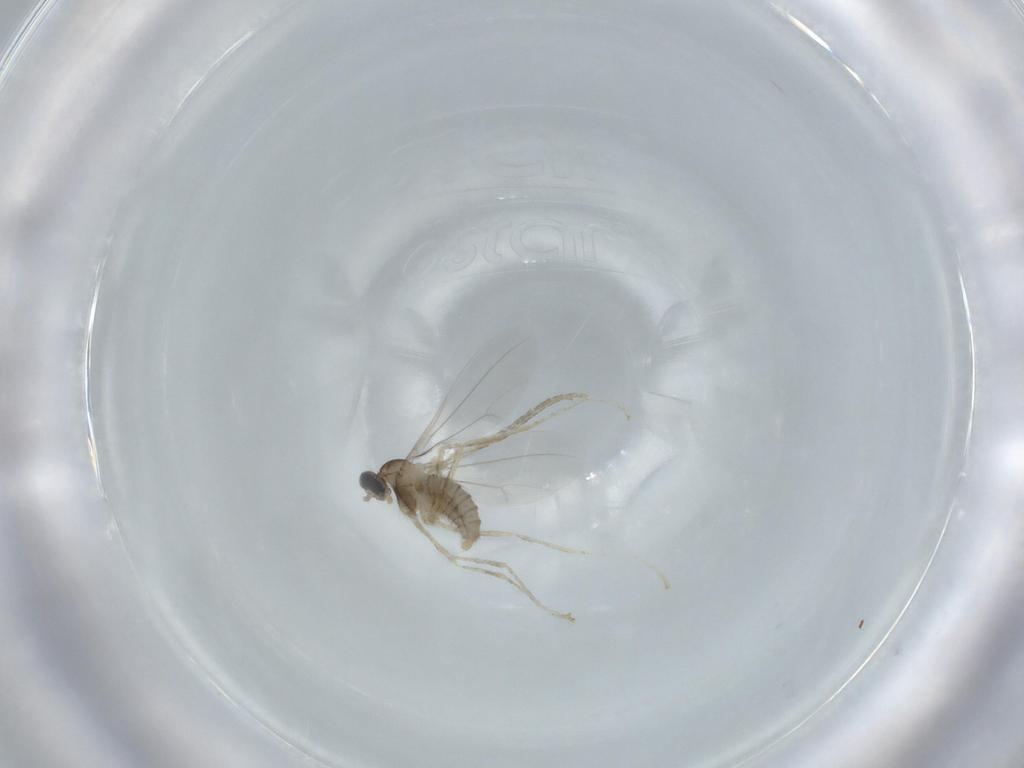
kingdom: Animalia
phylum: Arthropoda
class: Insecta
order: Diptera
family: Cecidomyiidae
